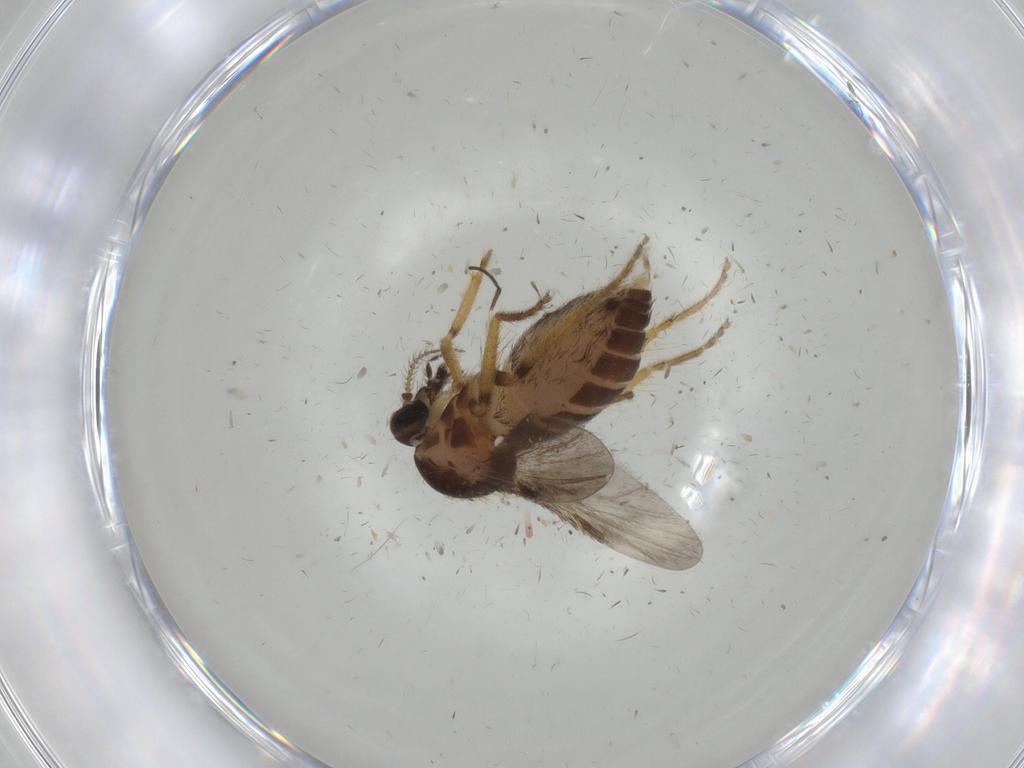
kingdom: Animalia
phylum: Arthropoda
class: Insecta
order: Diptera
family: Ceratopogonidae
